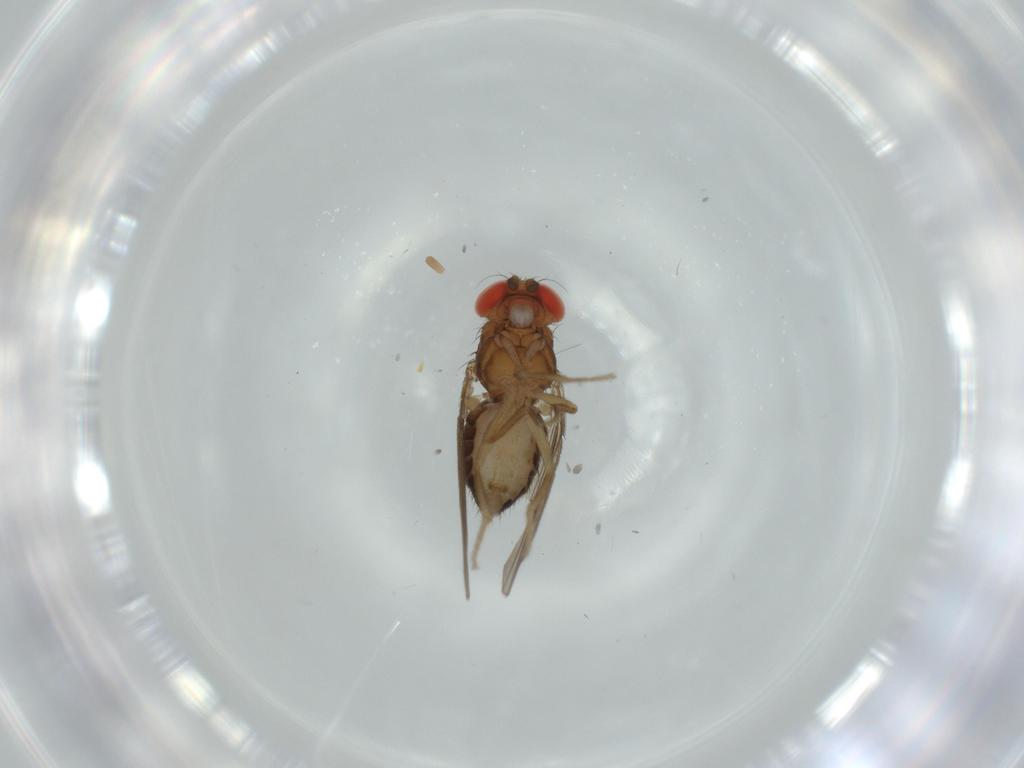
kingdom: Animalia
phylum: Arthropoda
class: Insecta
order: Diptera
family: Drosophilidae
